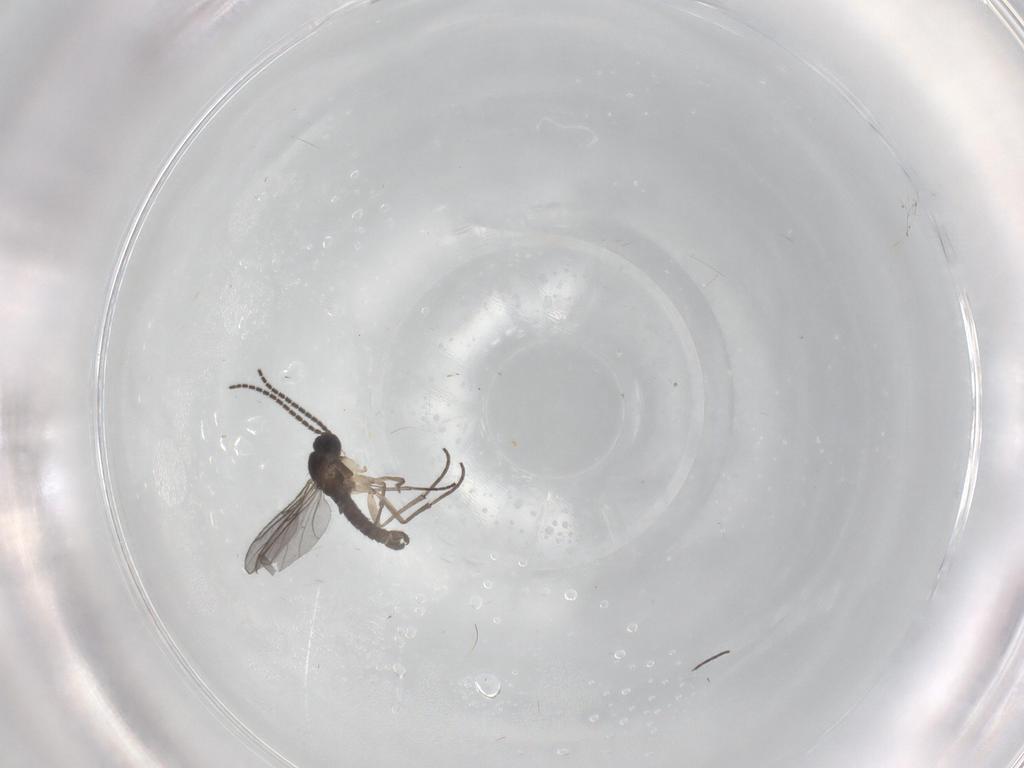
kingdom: Animalia
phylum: Arthropoda
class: Insecta
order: Diptera
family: Sciaridae
